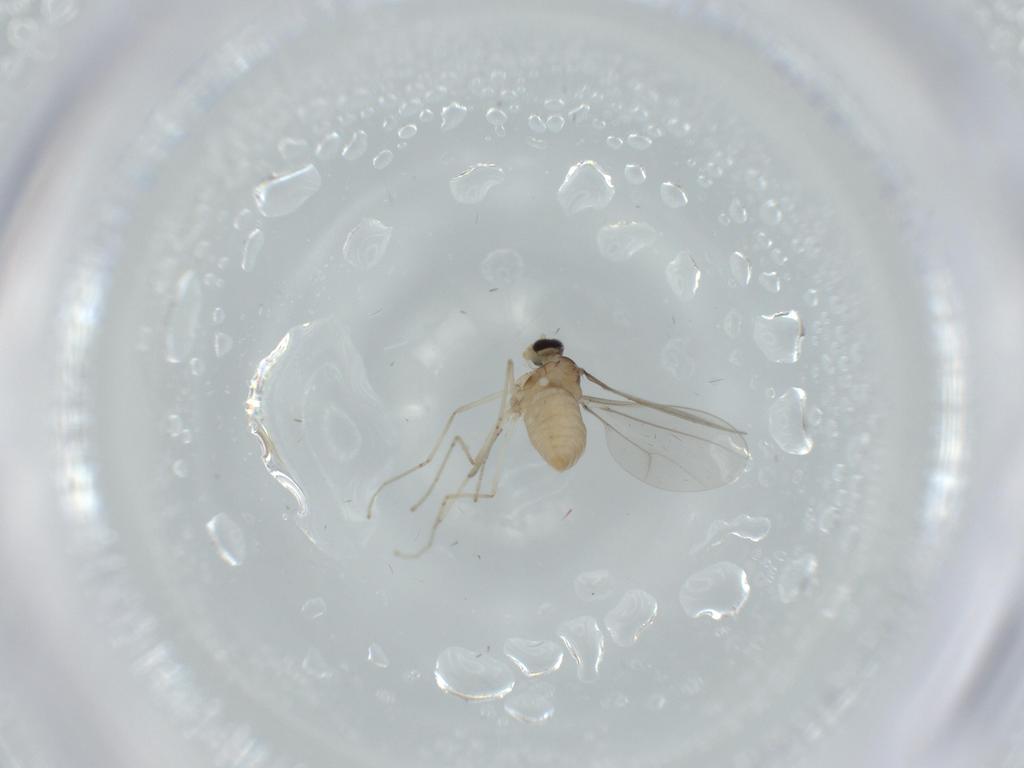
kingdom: Animalia
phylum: Arthropoda
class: Insecta
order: Diptera
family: Cecidomyiidae
